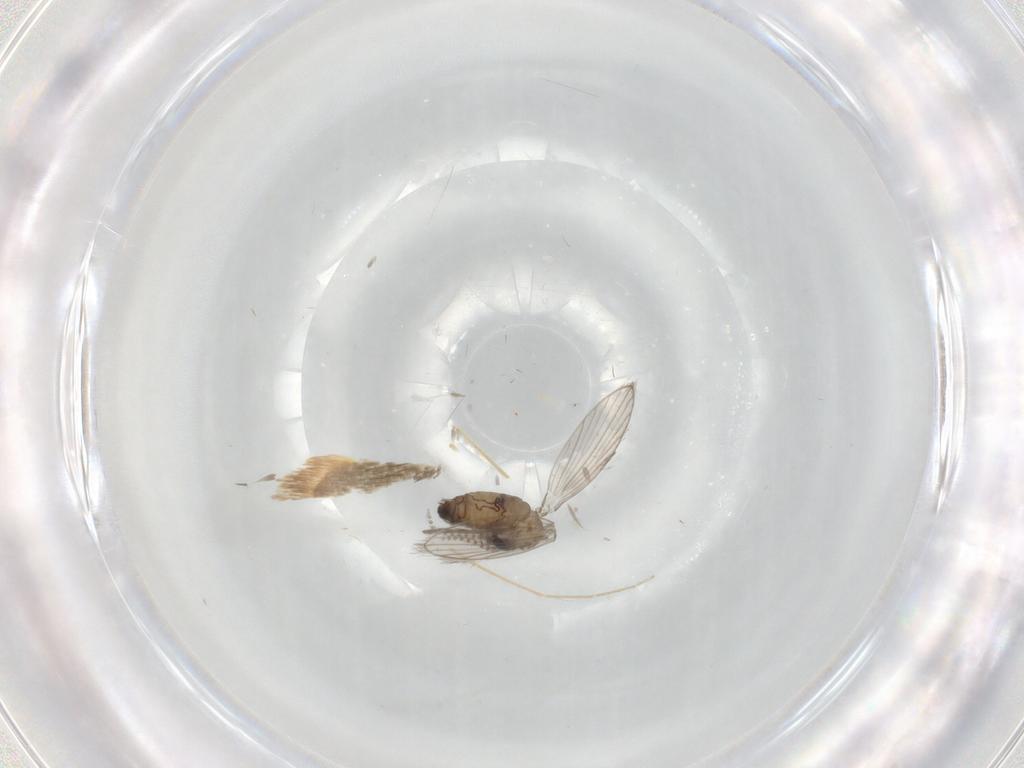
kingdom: Animalia
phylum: Arthropoda
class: Insecta
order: Diptera
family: Psychodidae
